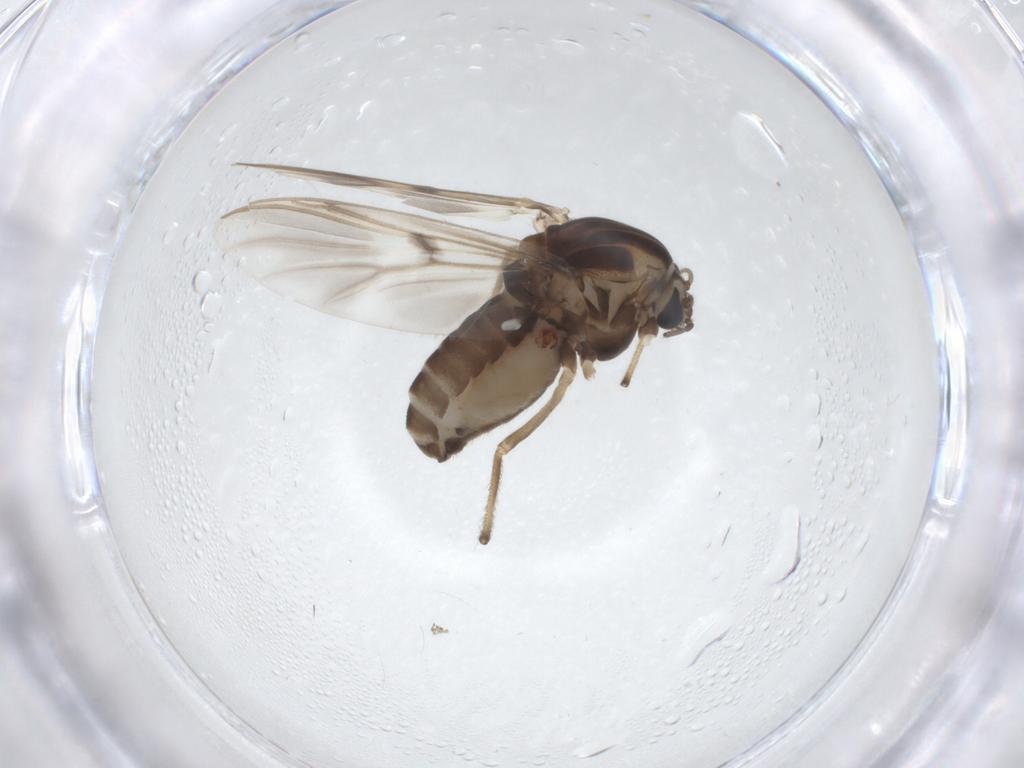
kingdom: Animalia
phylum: Arthropoda
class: Insecta
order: Diptera
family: Chironomidae
